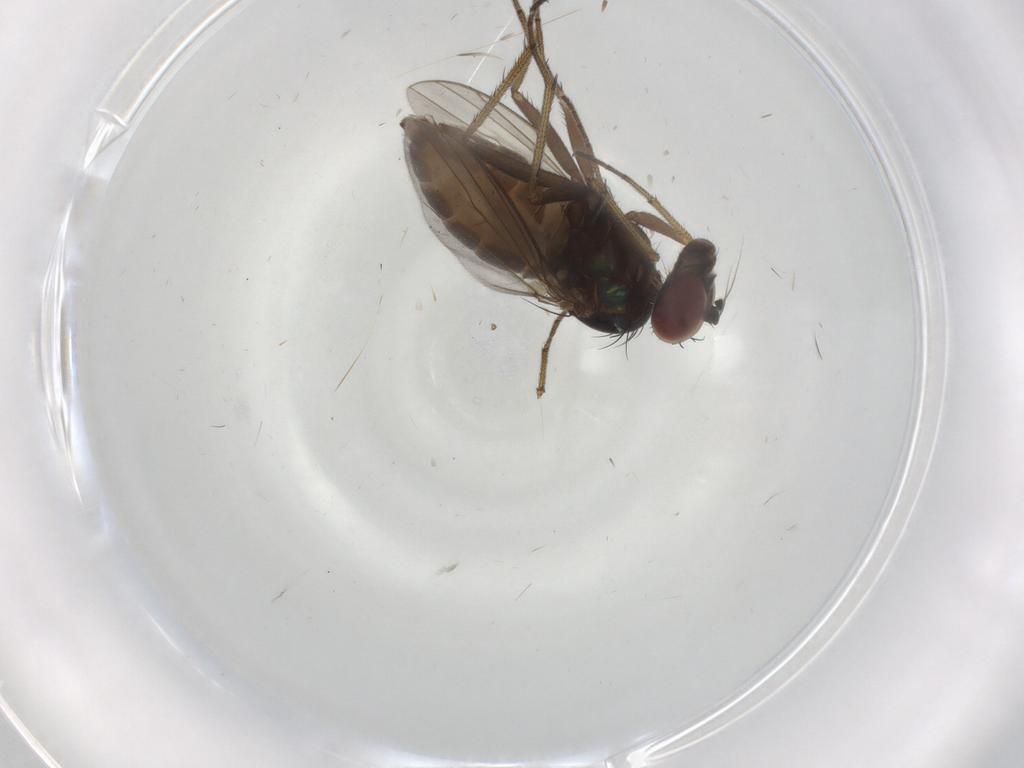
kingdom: Animalia
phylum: Arthropoda
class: Insecta
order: Diptera
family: Dolichopodidae
